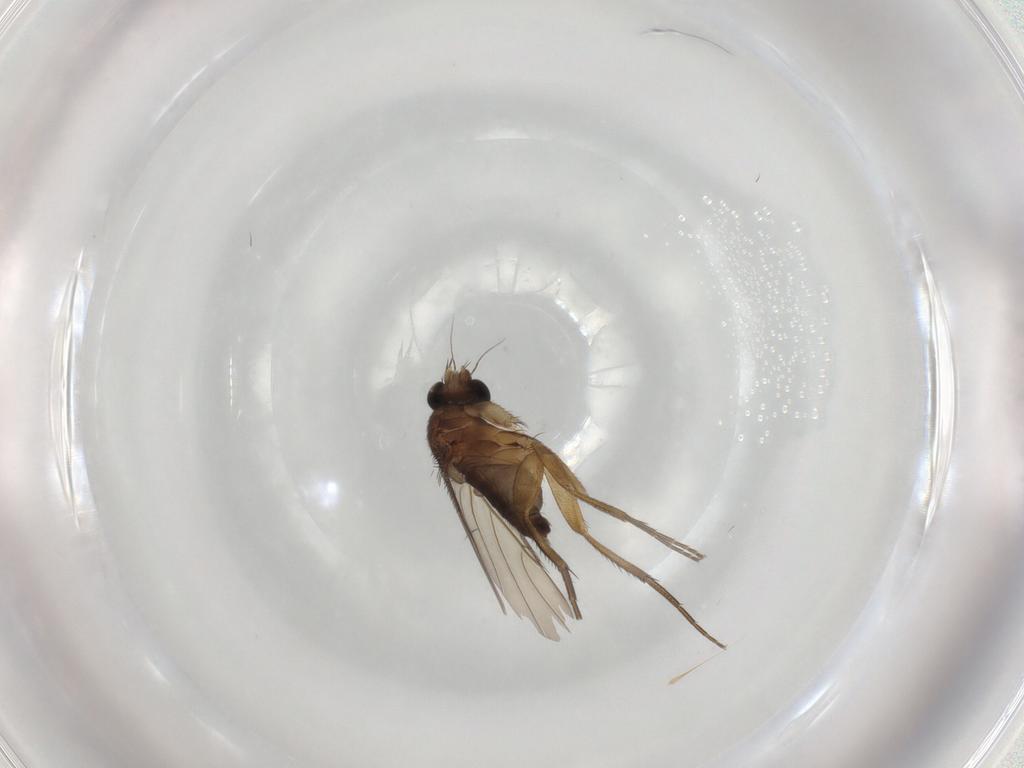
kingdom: Animalia
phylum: Arthropoda
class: Insecta
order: Diptera
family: Phoridae
